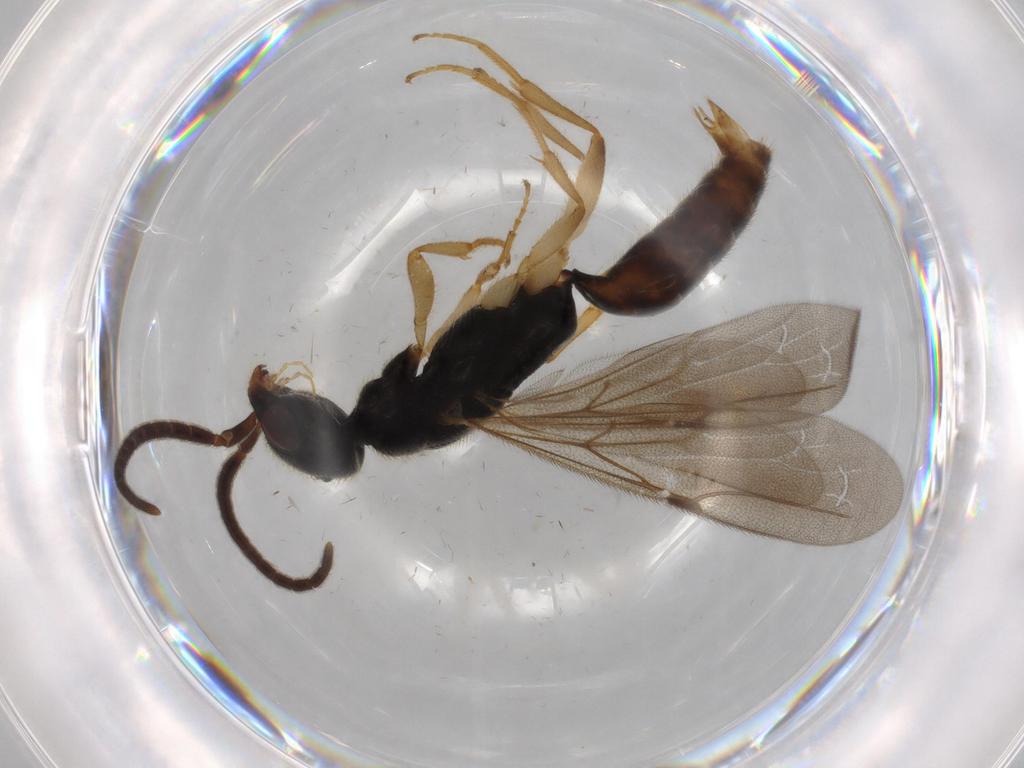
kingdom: Animalia
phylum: Arthropoda
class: Insecta
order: Hymenoptera
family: Bethylidae
